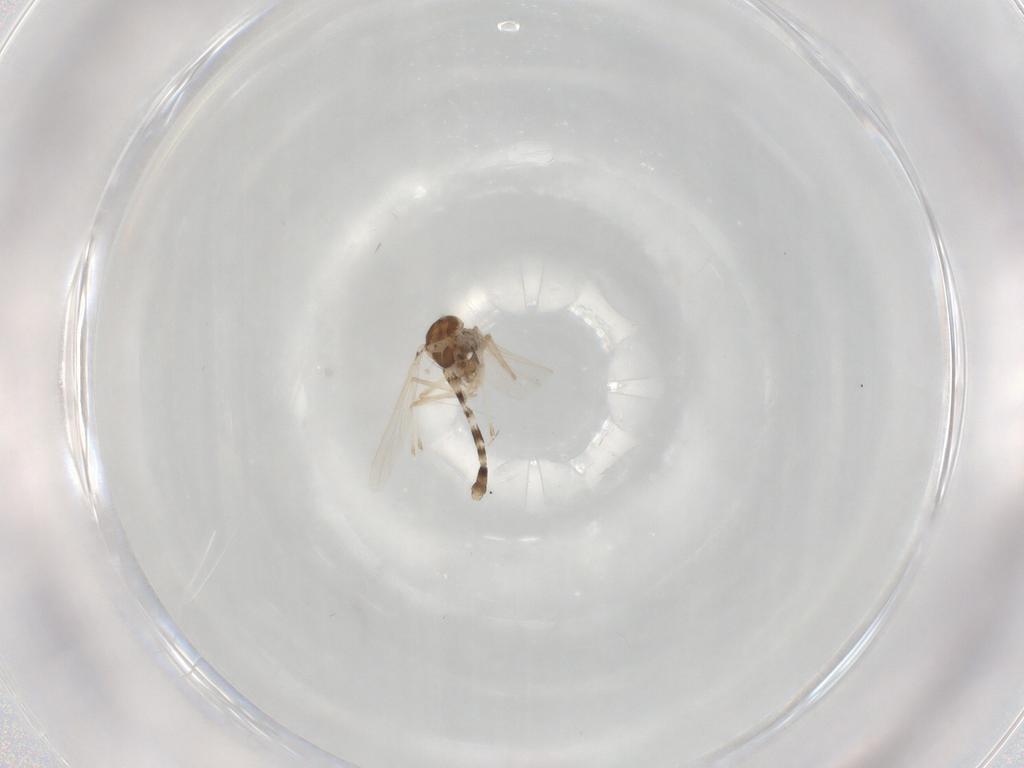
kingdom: Animalia
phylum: Arthropoda
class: Insecta
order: Diptera
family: Chironomidae
